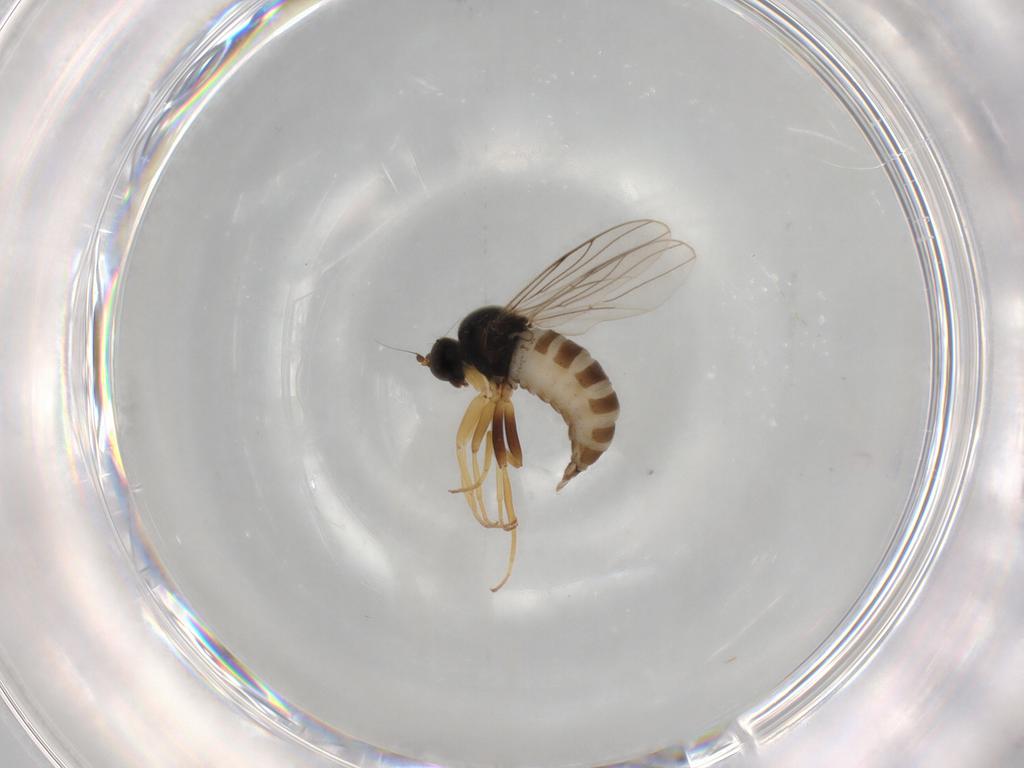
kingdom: Animalia
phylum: Arthropoda
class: Insecta
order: Diptera
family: Hybotidae
